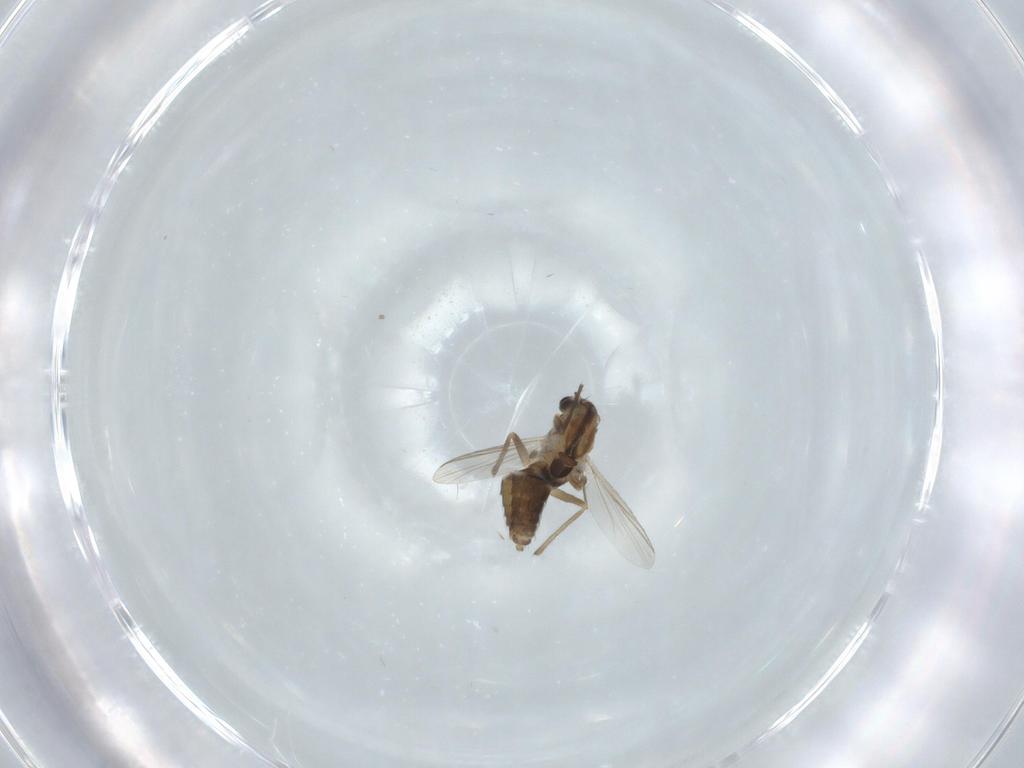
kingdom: Animalia
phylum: Arthropoda
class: Insecta
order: Diptera
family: Chironomidae
